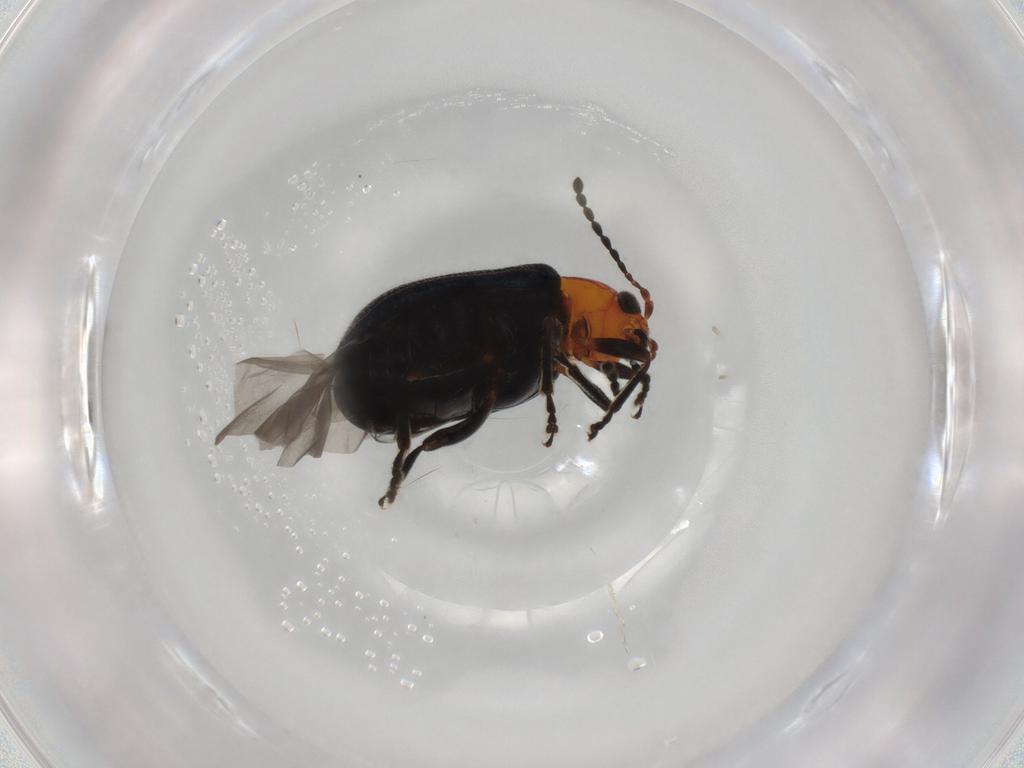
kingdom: Animalia
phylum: Arthropoda
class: Insecta
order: Coleoptera
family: Chrysomelidae
